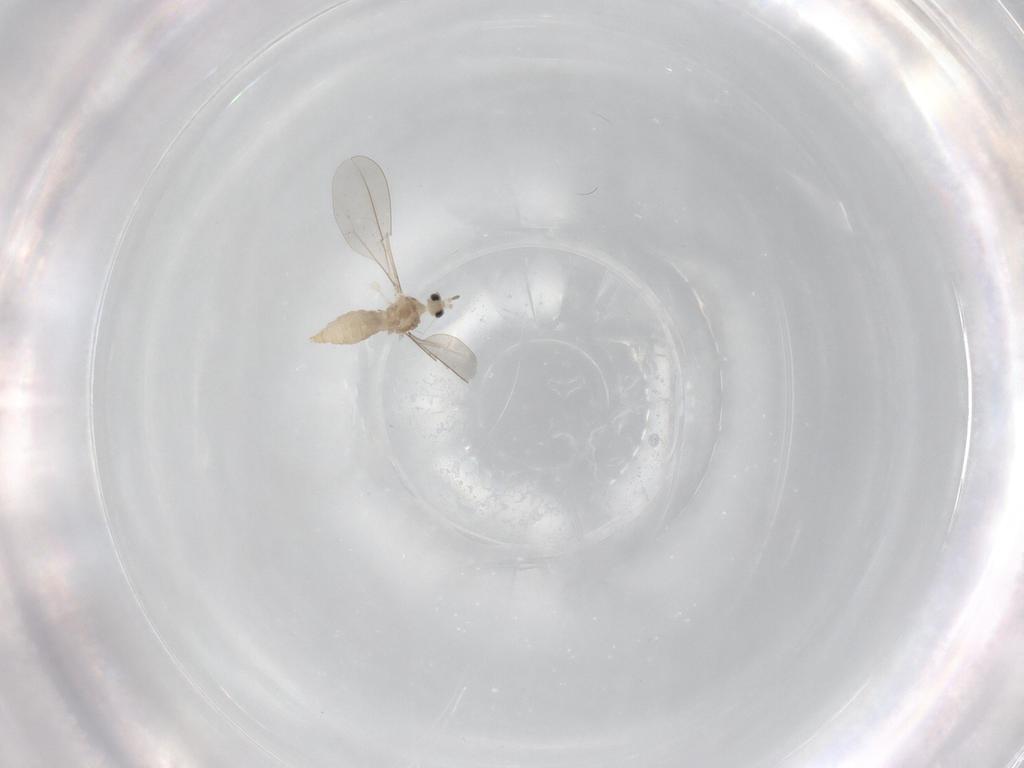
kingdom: Animalia
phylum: Arthropoda
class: Insecta
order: Diptera
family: Cecidomyiidae
